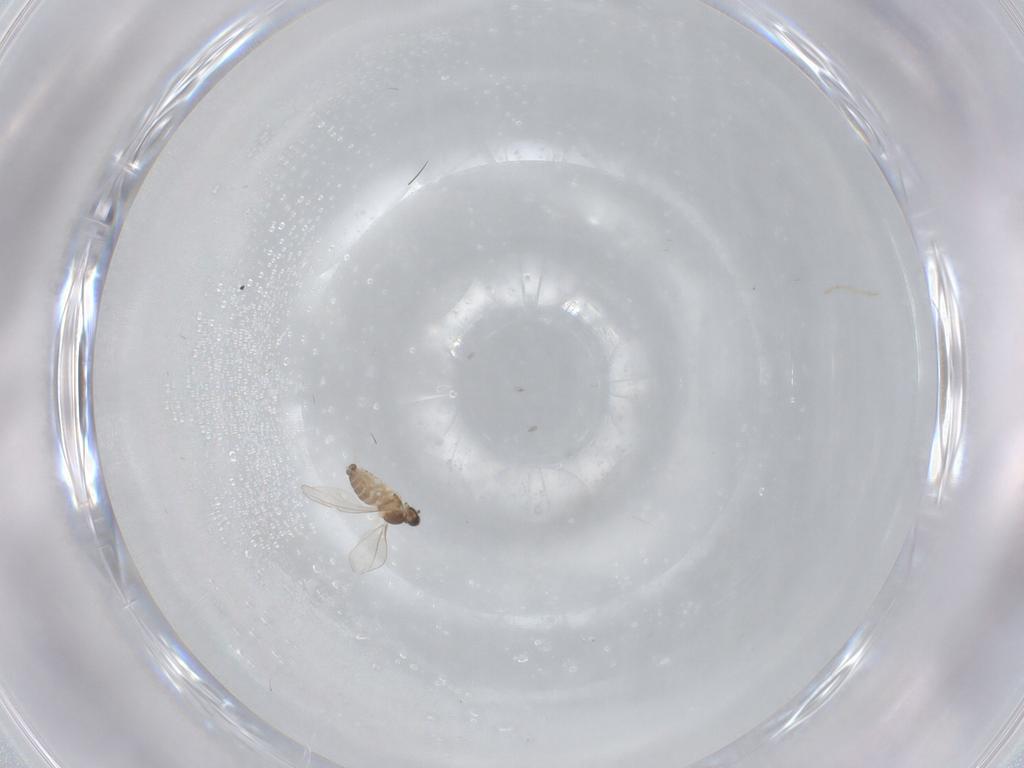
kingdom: Animalia
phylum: Arthropoda
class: Insecta
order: Diptera
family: Cecidomyiidae
